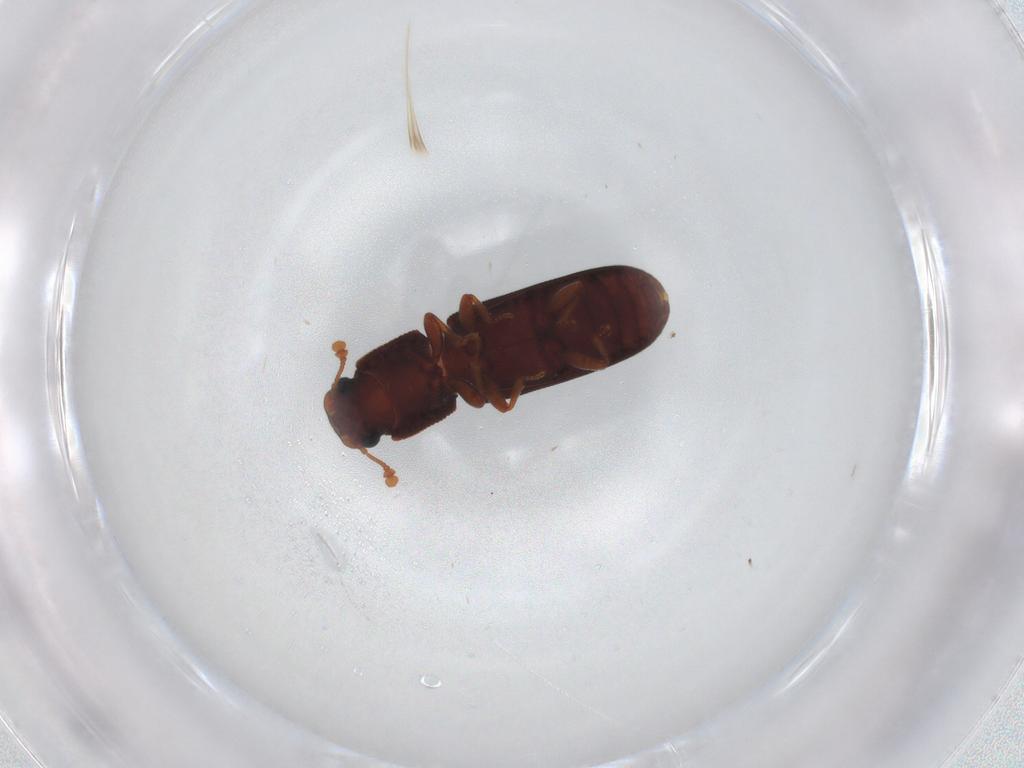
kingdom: Animalia
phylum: Arthropoda
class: Insecta
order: Coleoptera
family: Zopheridae
